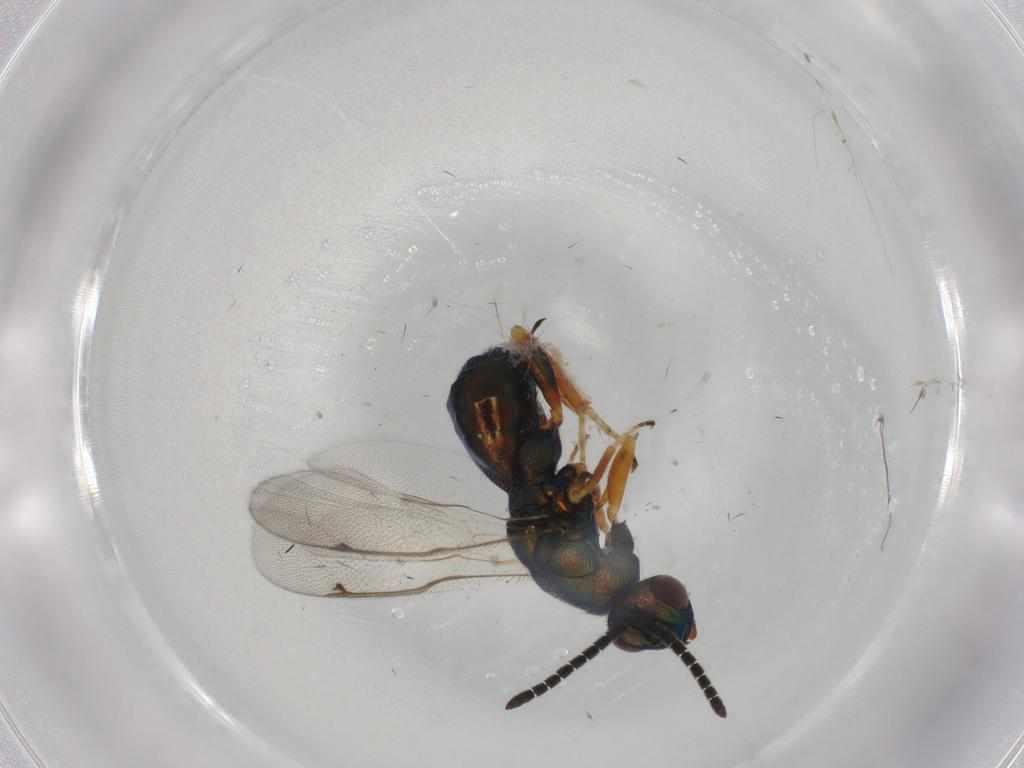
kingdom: Animalia
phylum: Arthropoda
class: Insecta
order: Hymenoptera
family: Torymidae
